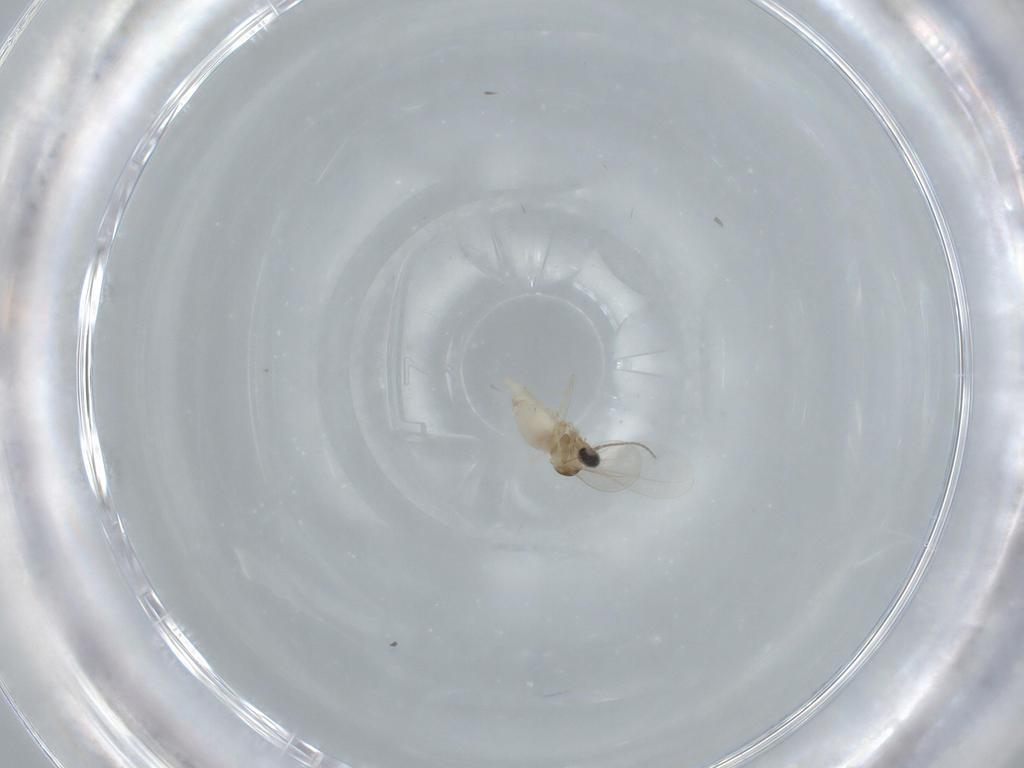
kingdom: Animalia
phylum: Arthropoda
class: Insecta
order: Diptera
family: Cecidomyiidae
